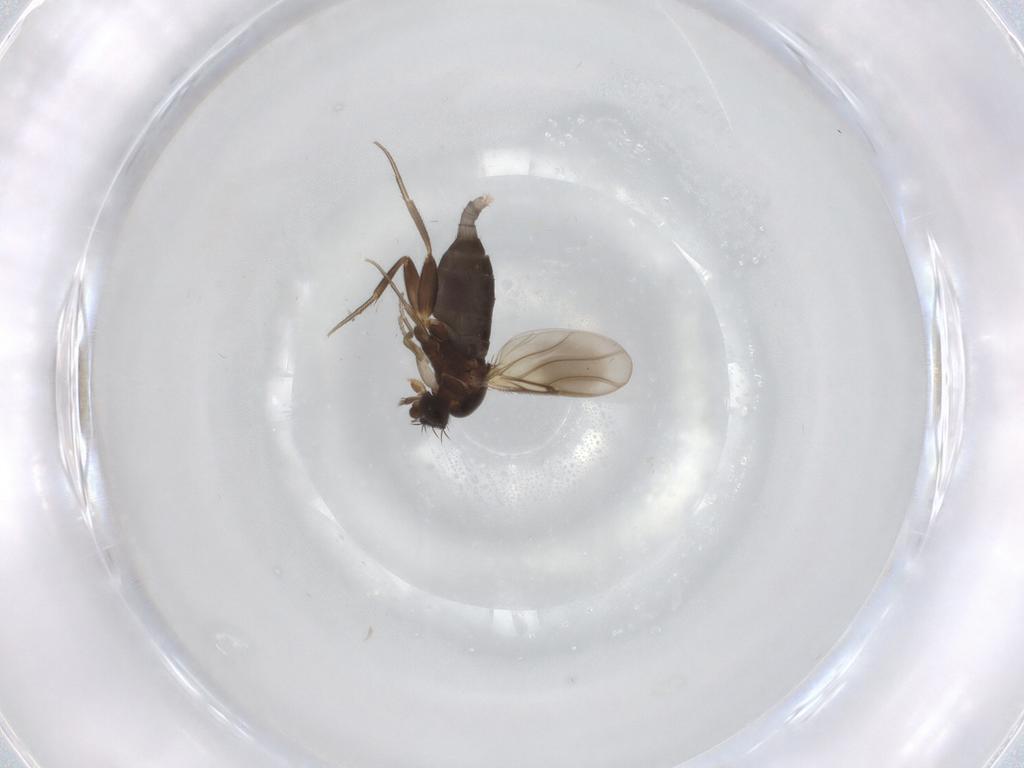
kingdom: Animalia
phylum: Arthropoda
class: Insecta
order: Diptera
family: Phoridae
